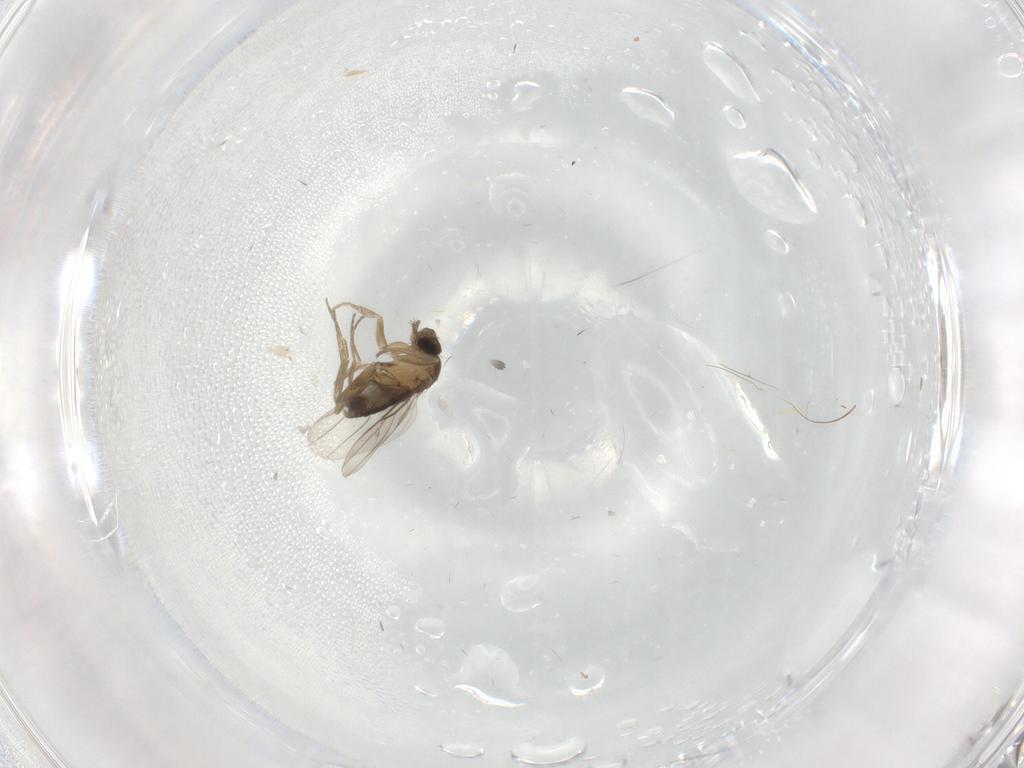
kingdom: Animalia
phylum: Arthropoda
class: Insecta
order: Diptera
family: Phoridae
